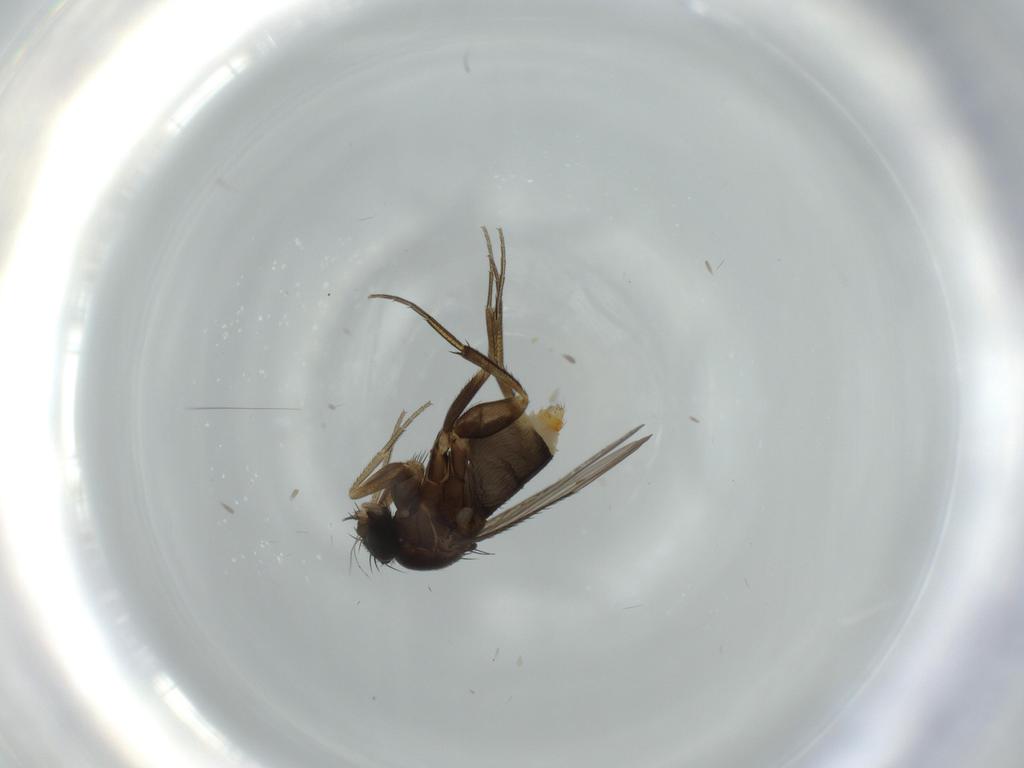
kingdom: Animalia
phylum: Arthropoda
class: Insecta
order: Diptera
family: Phoridae
